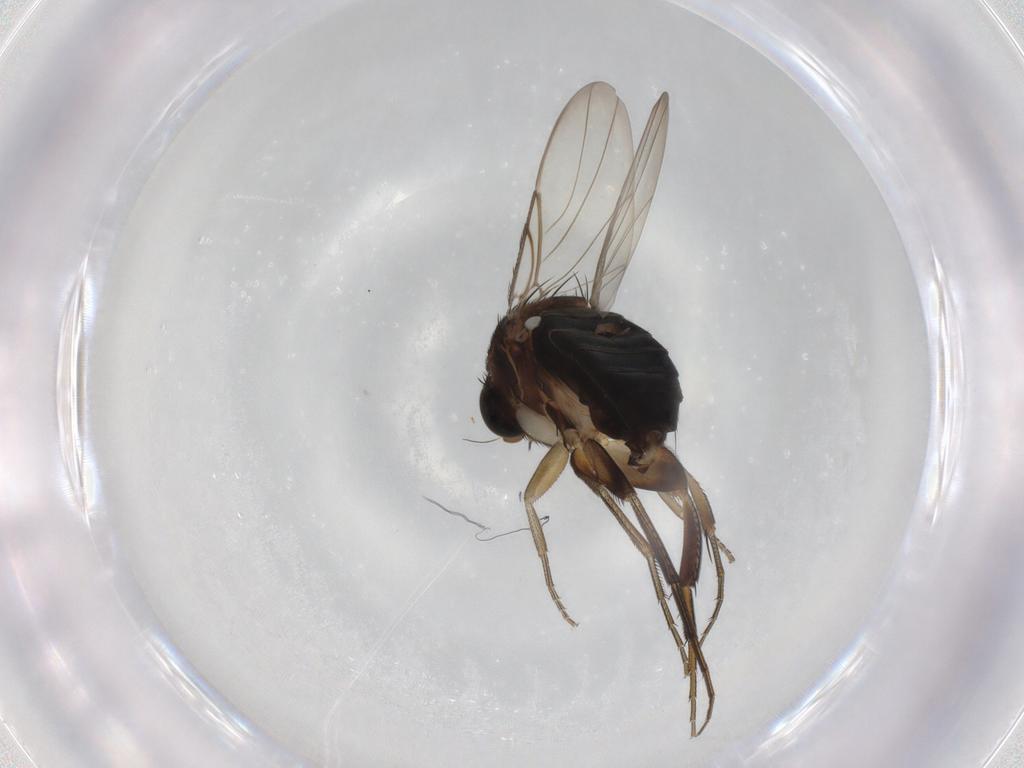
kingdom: Animalia
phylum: Arthropoda
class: Insecta
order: Diptera
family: Phoridae
